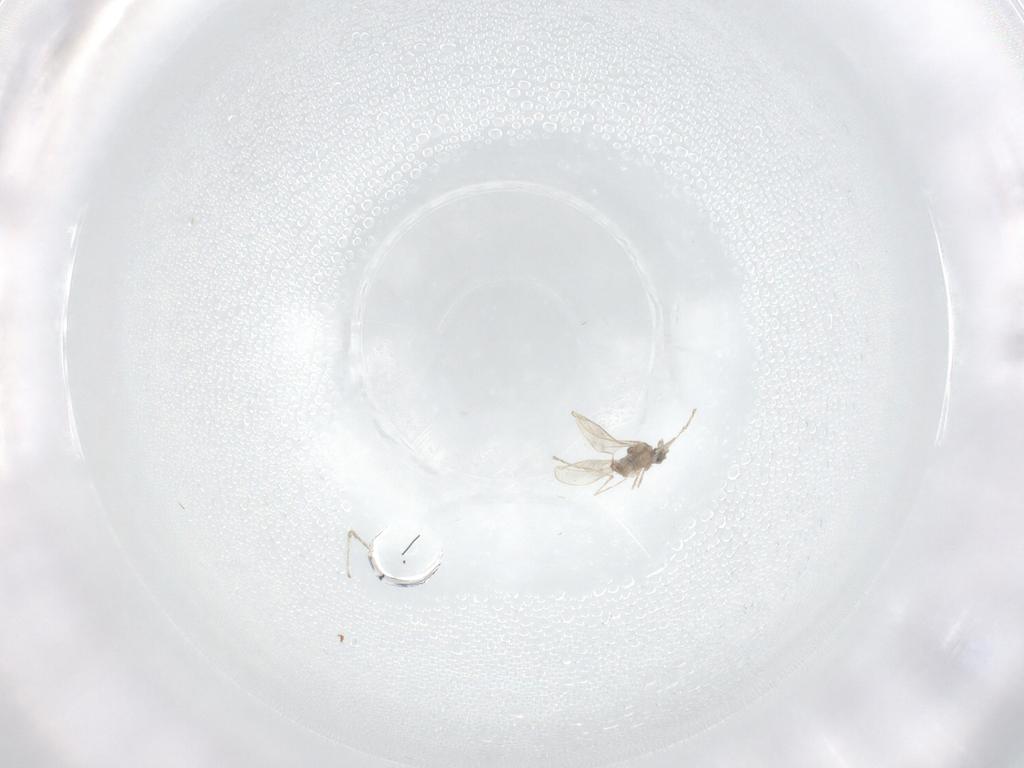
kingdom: Animalia
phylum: Arthropoda
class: Insecta
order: Diptera
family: Cecidomyiidae
